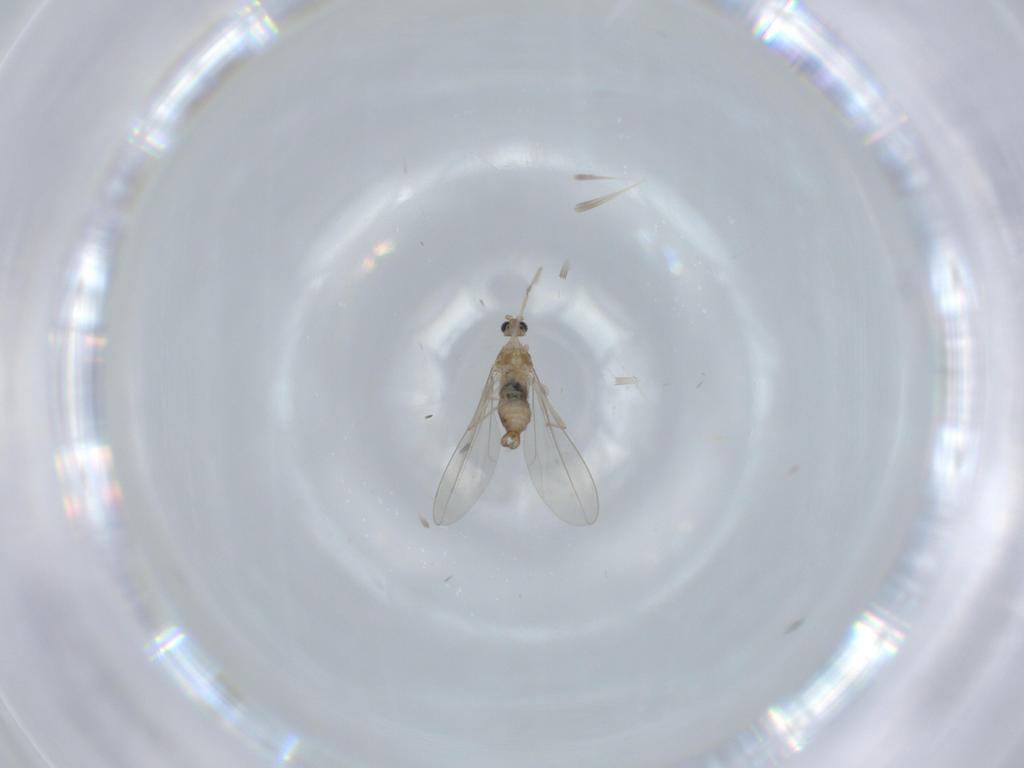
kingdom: Animalia
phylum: Arthropoda
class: Insecta
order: Diptera
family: Cecidomyiidae
